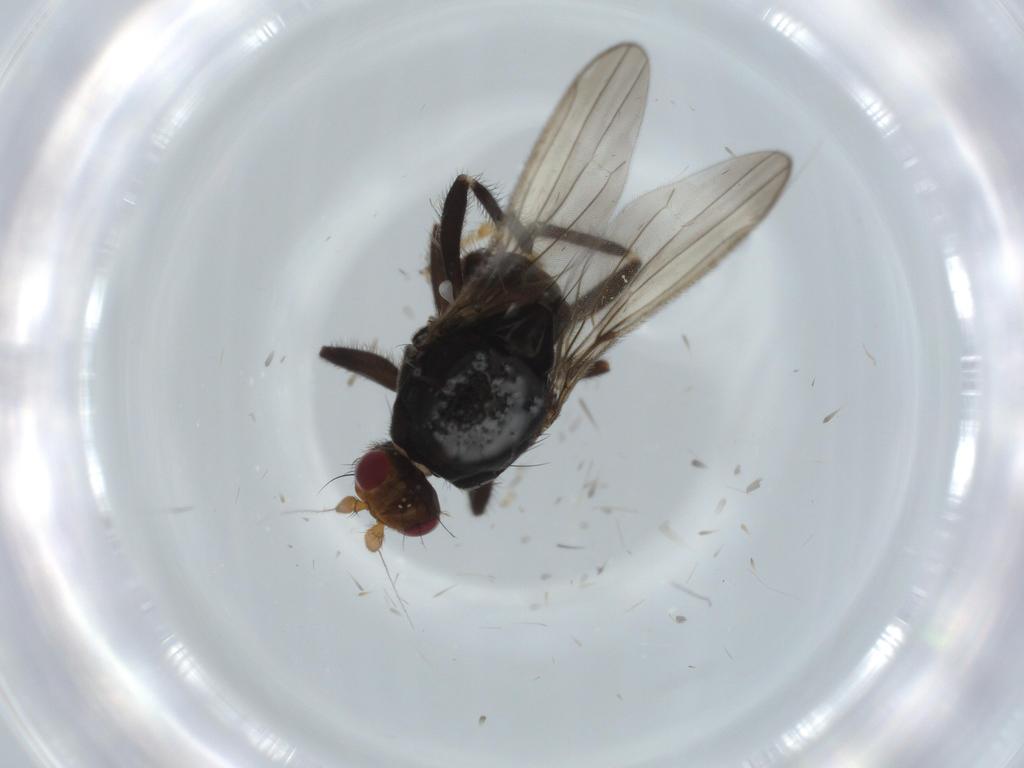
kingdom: Animalia
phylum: Arthropoda
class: Insecta
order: Diptera
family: Sphaeroceridae
